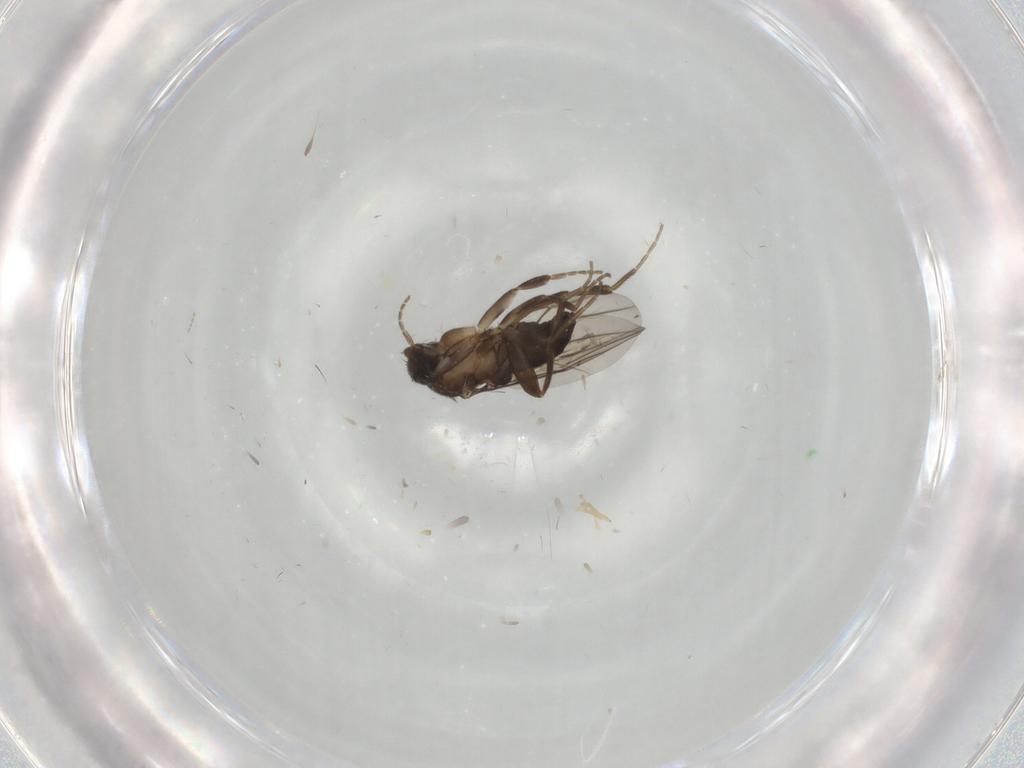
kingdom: Animalia
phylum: Arthropoda
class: Insecta
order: Diptera
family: Phoridae
